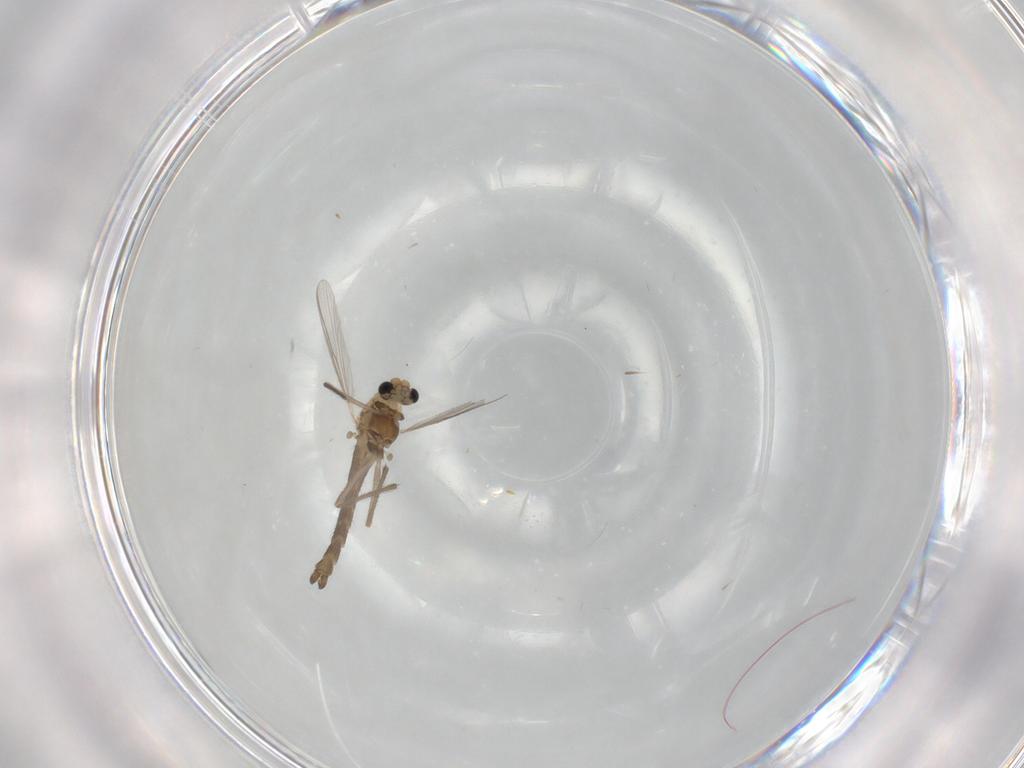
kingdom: Animalia
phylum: Arthropoda
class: Insecta
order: Diptera
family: Chironomidae
